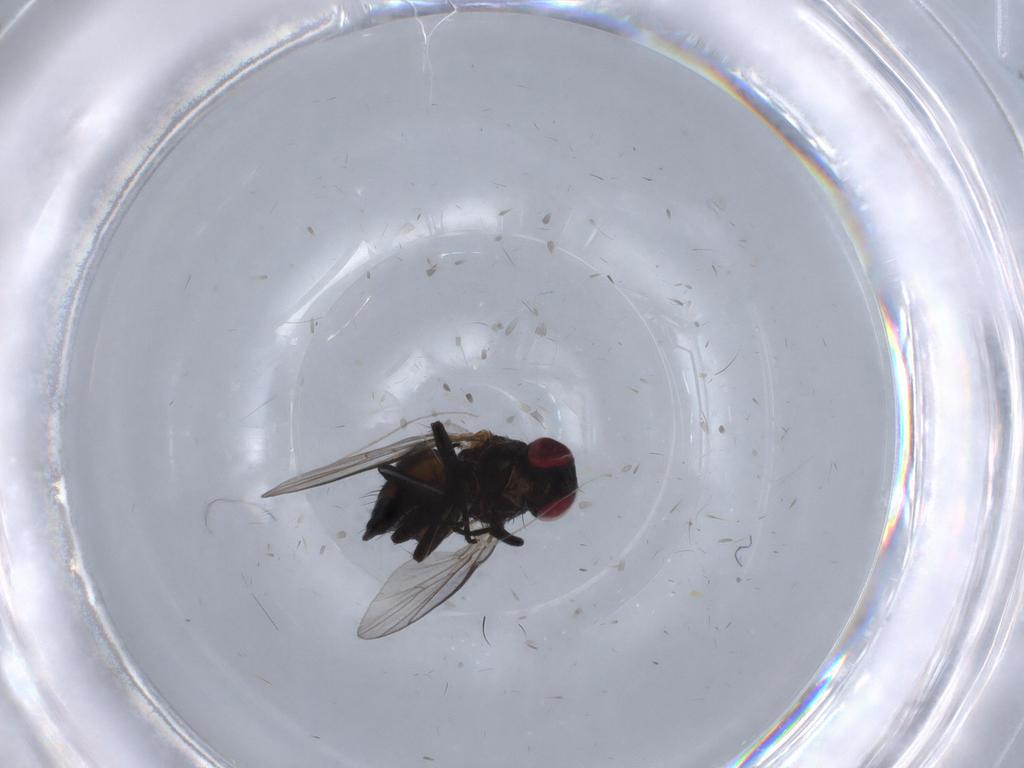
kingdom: Animalia
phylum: Arthropoda
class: Insecta
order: Diptera
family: Agromyzidae
